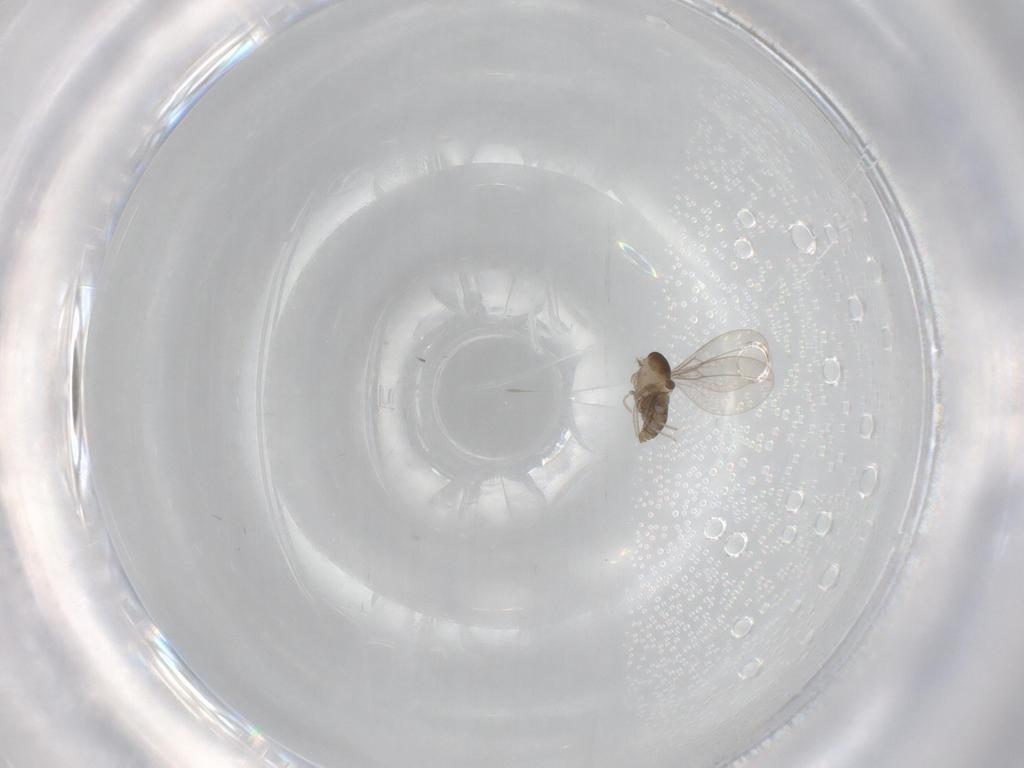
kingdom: Animalia
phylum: Arthropoda
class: Insecta
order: Diptera
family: Cecidomyiidae
